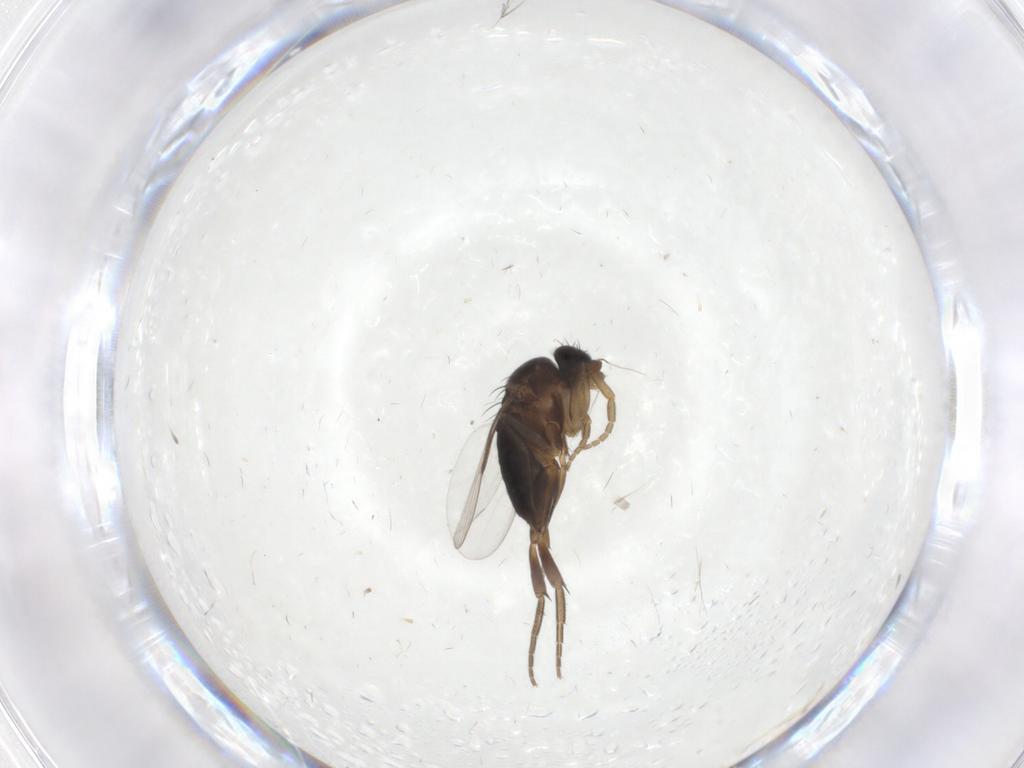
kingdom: Animalia
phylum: Arthropoda
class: Insecta
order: Diptera
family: Phoridae
